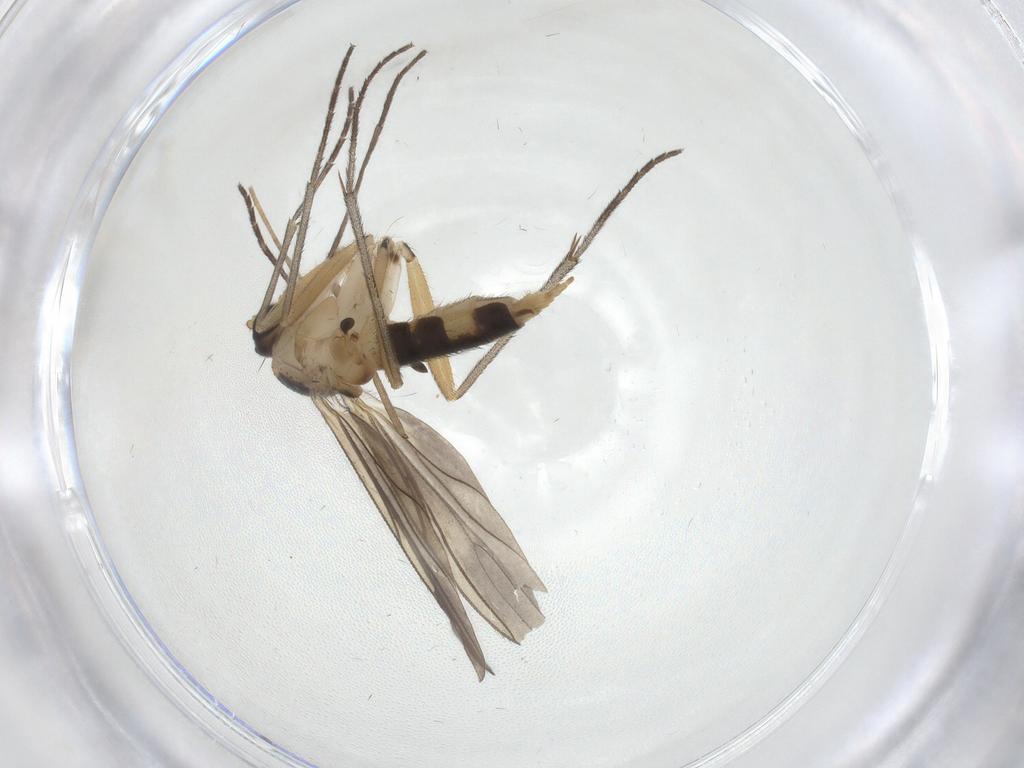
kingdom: Animalia
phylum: Arthropoda
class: Insecta
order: Diptera
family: Sciaridae
